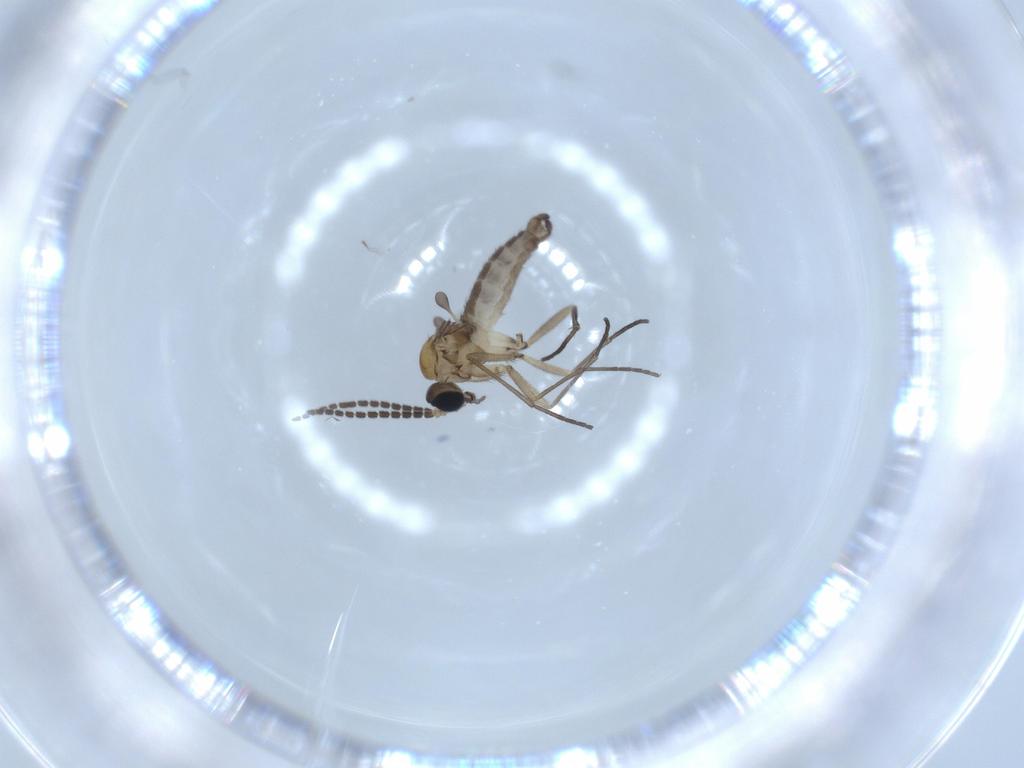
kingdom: Animalia
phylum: Arthropoda
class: Insecta
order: Diptera
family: Sciaridae
